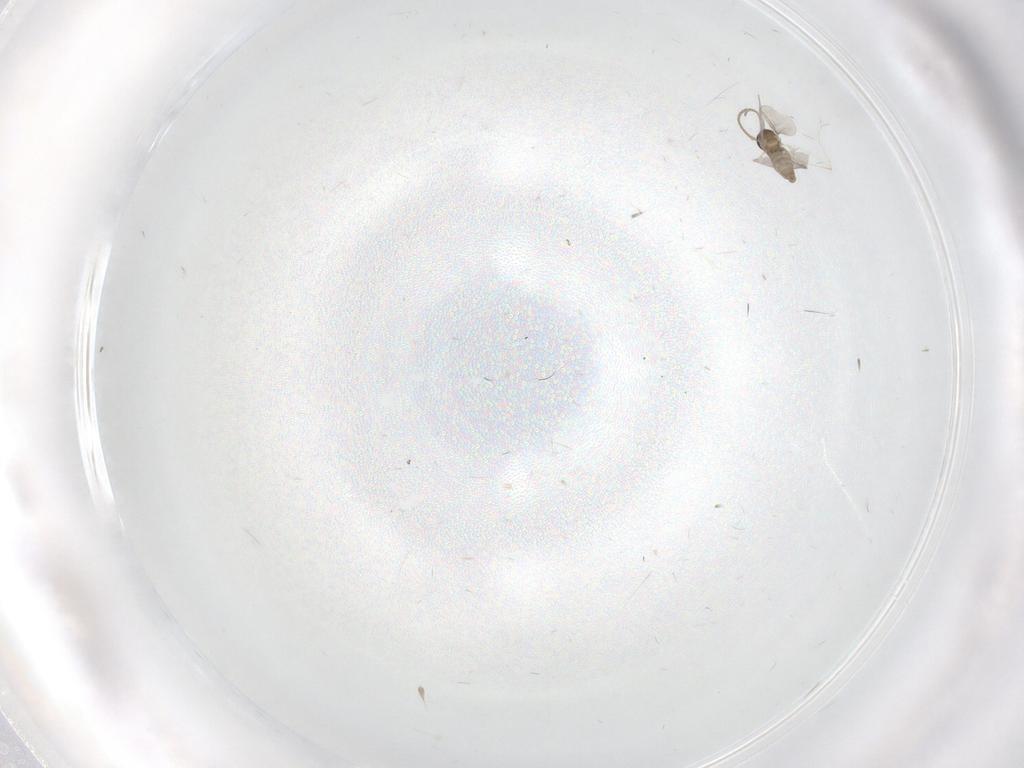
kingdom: Animalia
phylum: Arthropoda
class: Insecta
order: Diptera
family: Cecidomyiidae
